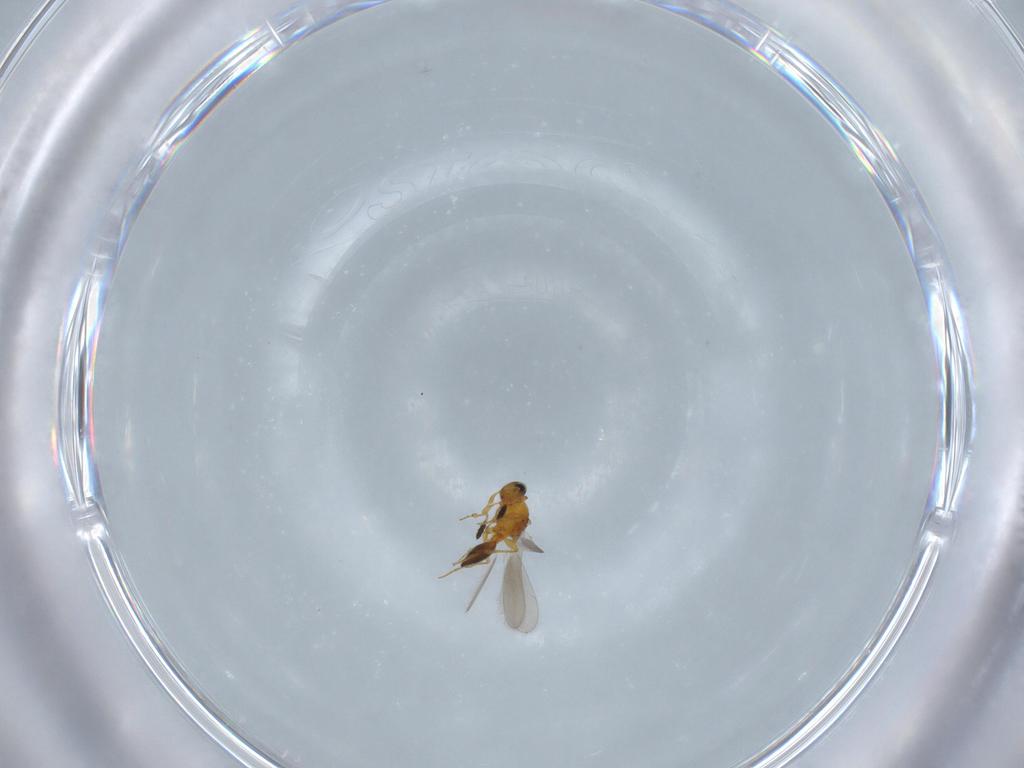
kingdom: Animalia
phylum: Arthropoda
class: Insecta
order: Hymenoptera
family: Platygastridae
